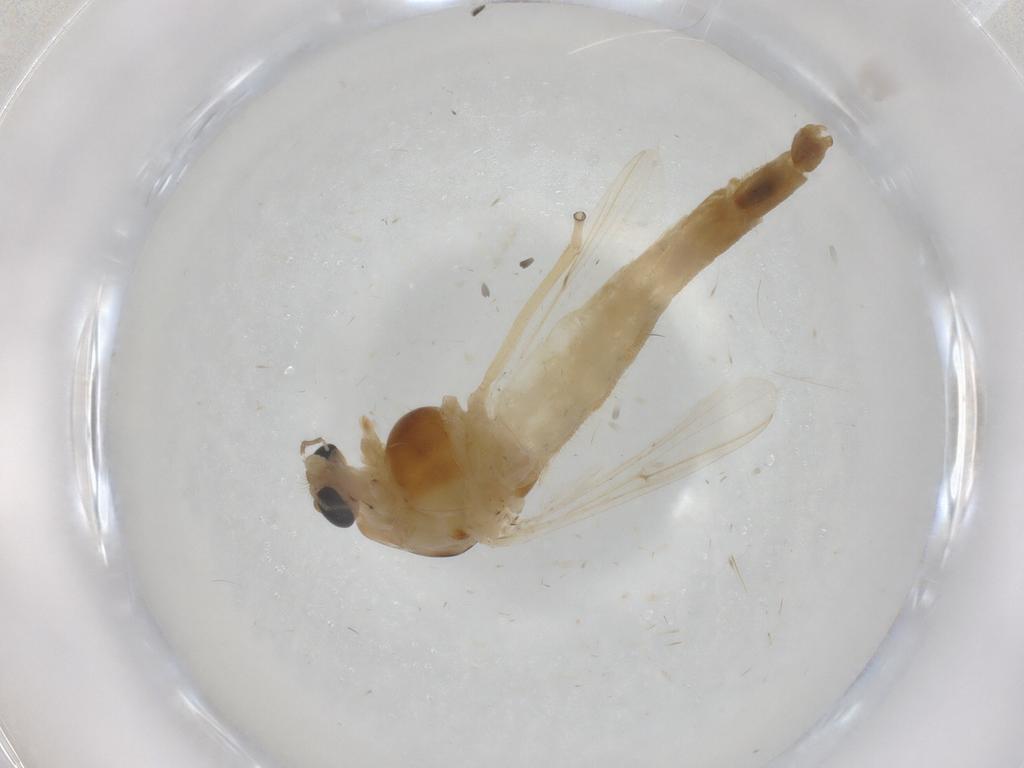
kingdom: Animalia
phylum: Arthropoda
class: Insecta
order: Diptera
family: Chironomidae
